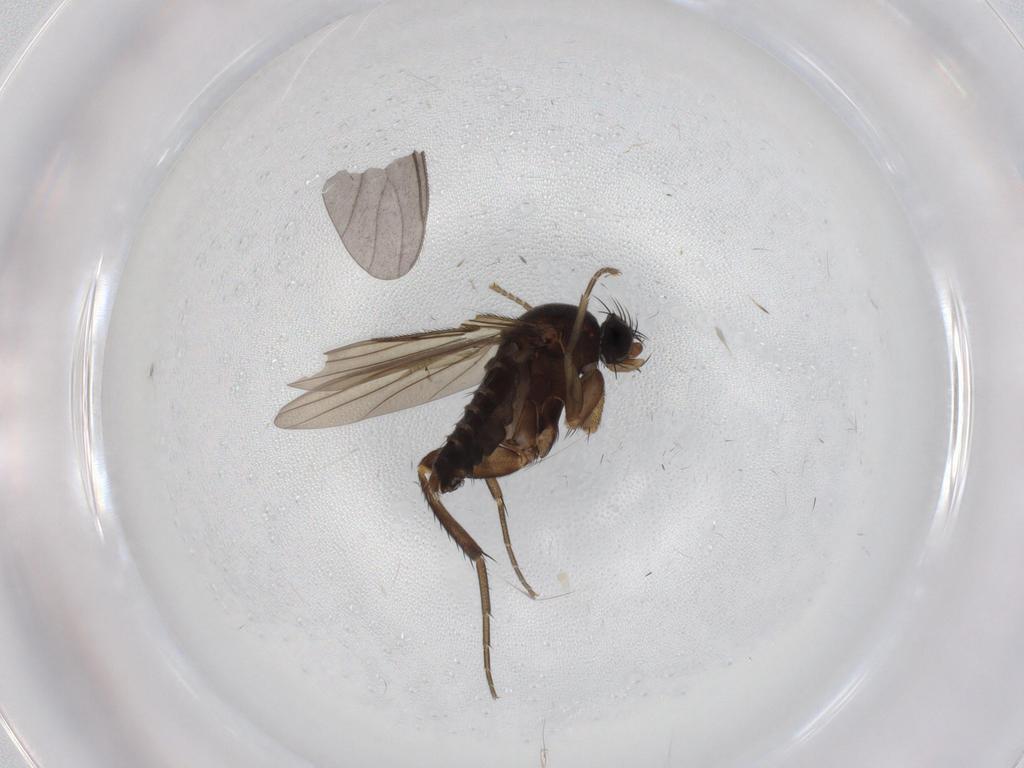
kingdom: Animalia
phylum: Arthropoda
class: Insecta
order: Diptera
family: Phoridae
